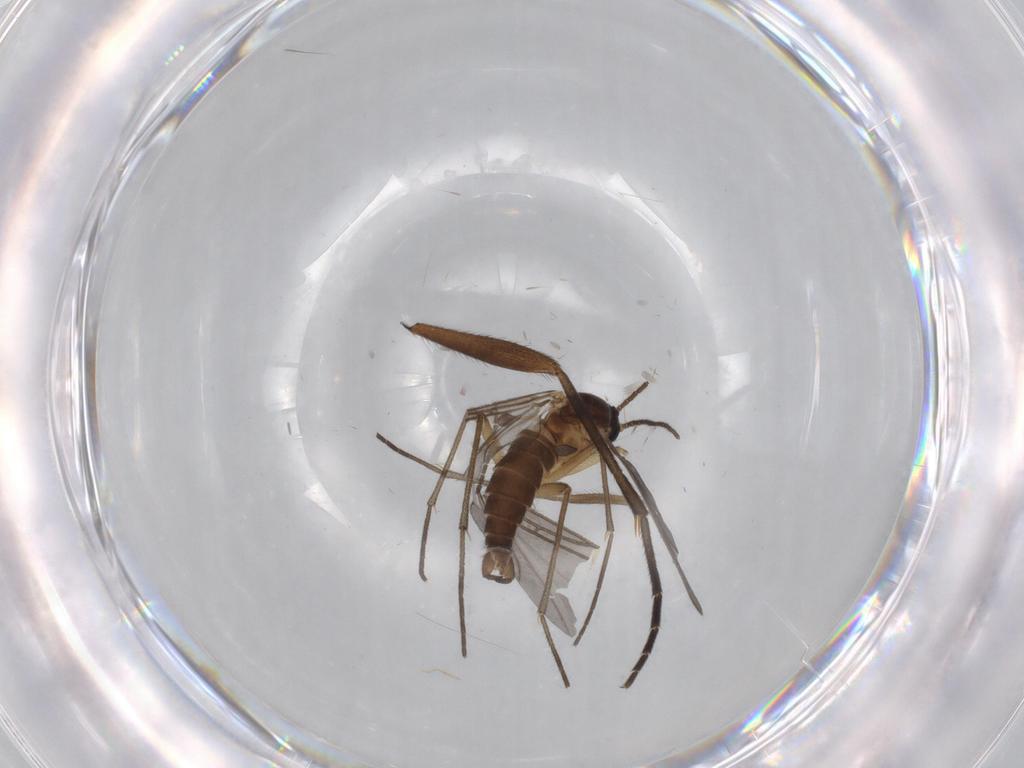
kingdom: Animalia
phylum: Arthropoda
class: Insecta
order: Diptera
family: Sciaridae
